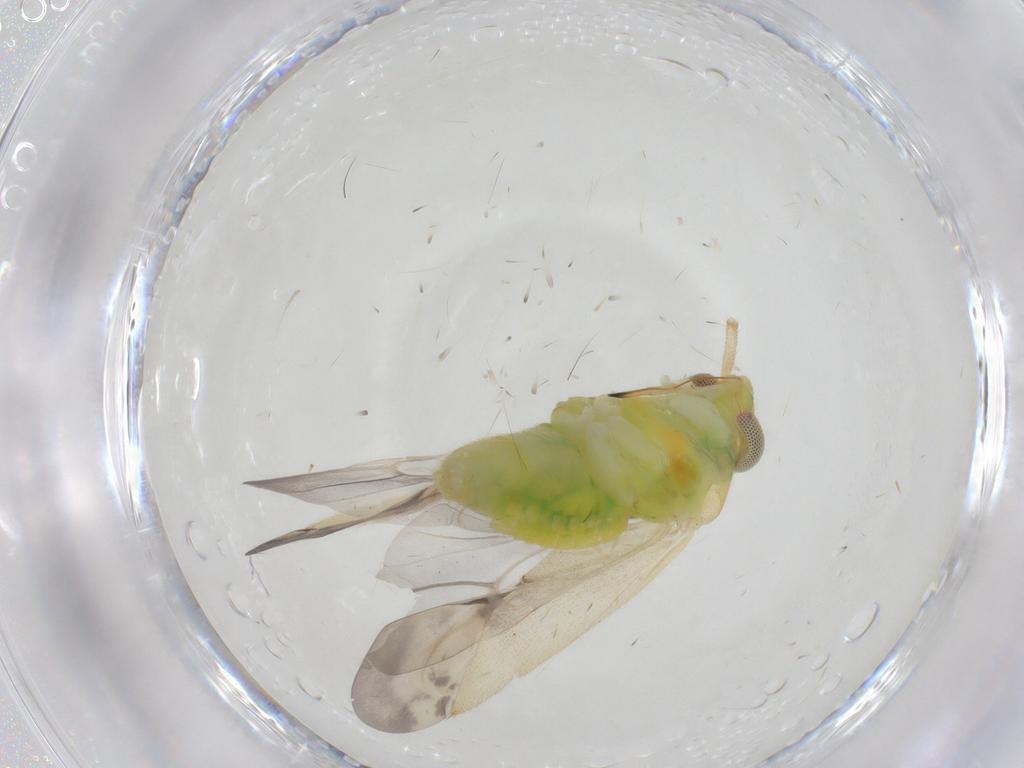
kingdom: Animalia
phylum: Arthropoda
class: Insecta
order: Hemiptera
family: Miridae
